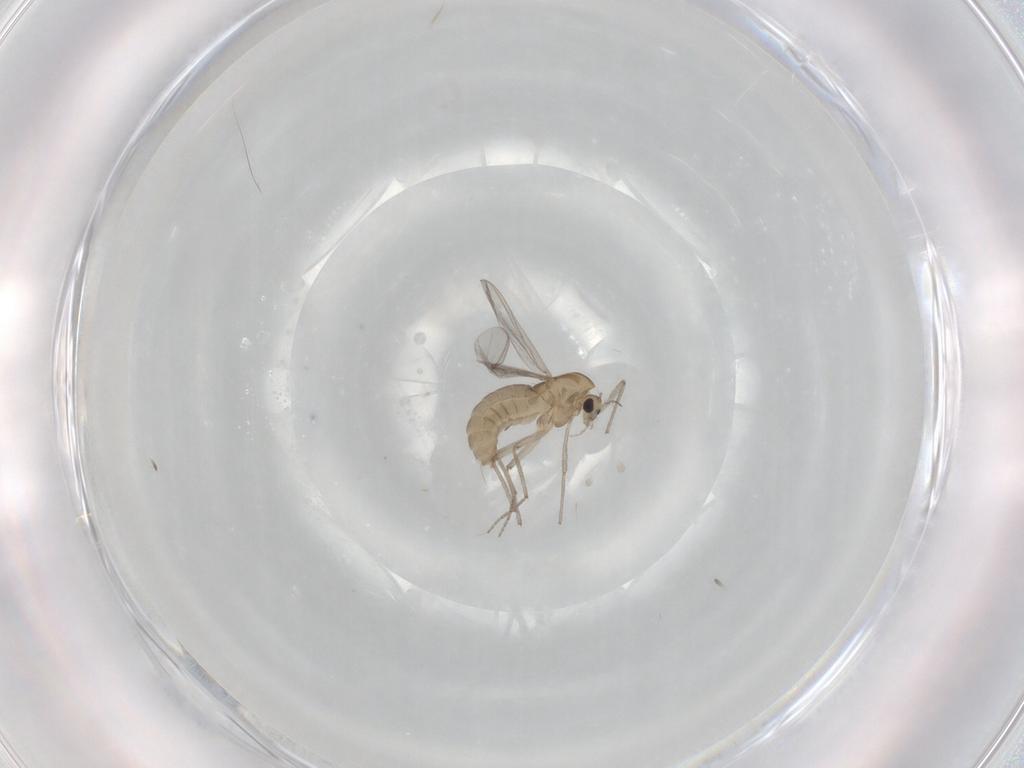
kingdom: Animalia
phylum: Arthropoda
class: Insecta
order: Diptera
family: Chironomidae
